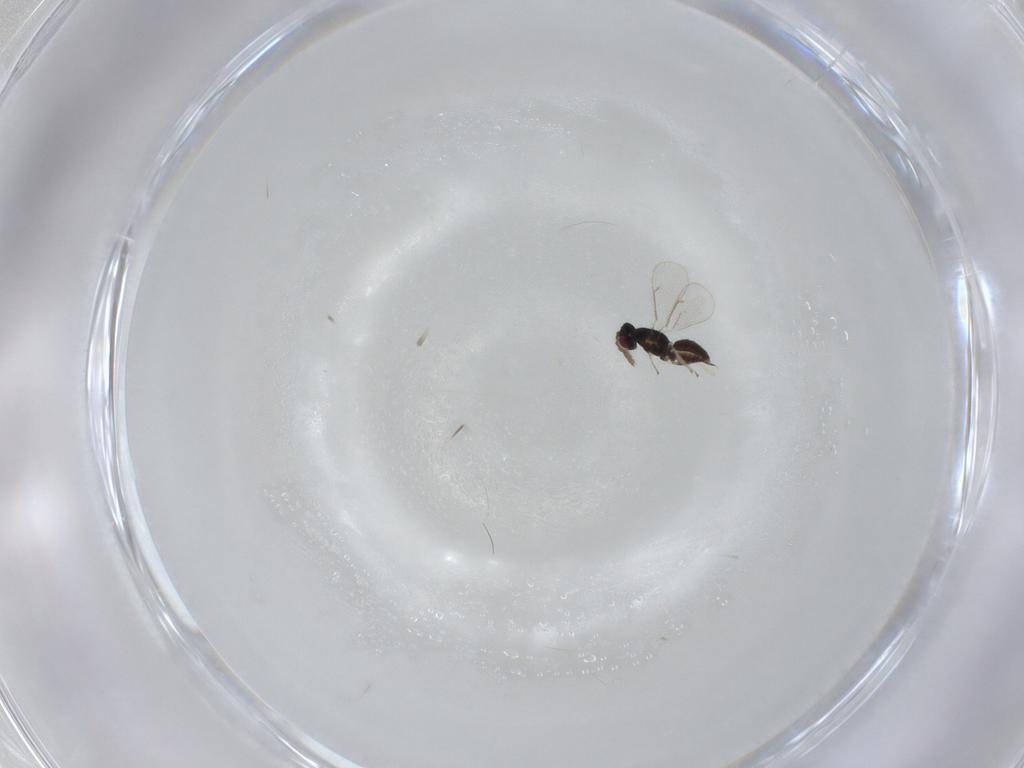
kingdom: Animalia
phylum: Arthropoda
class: Insecta
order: Hymenoptera
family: Eulophidae
